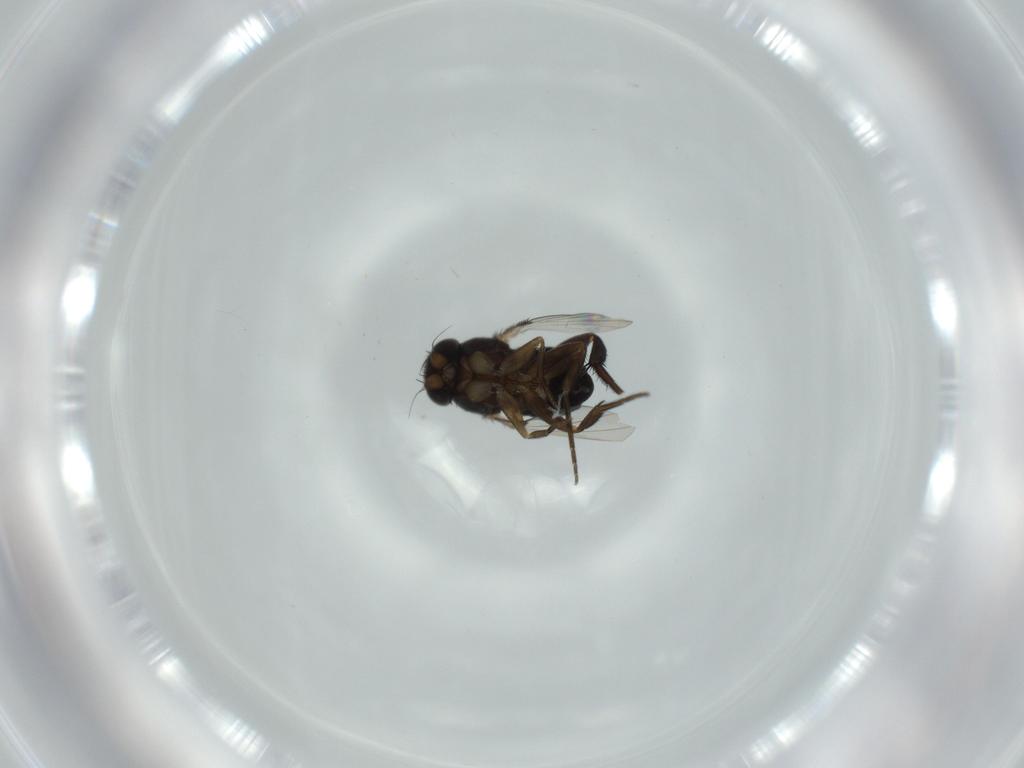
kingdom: Animalia
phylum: Arthropoda
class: Insecta
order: Diptera
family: Phoridae
